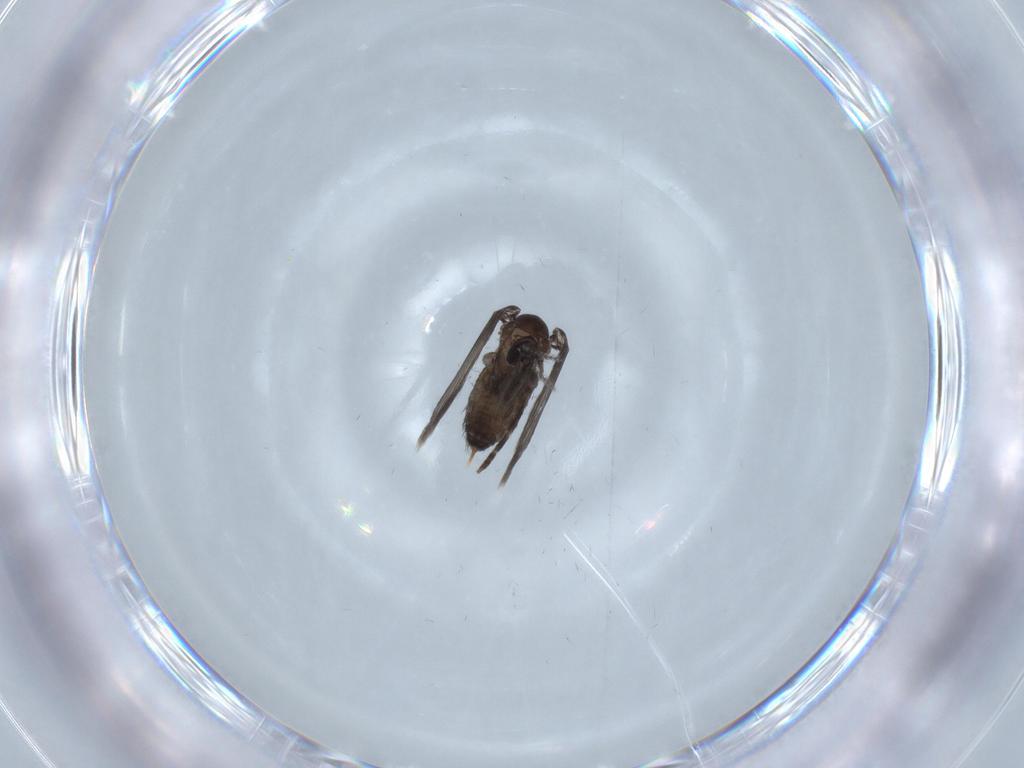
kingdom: Animalia
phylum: Arthropoda
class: Insecta
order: Diptera
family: Psychodidae
